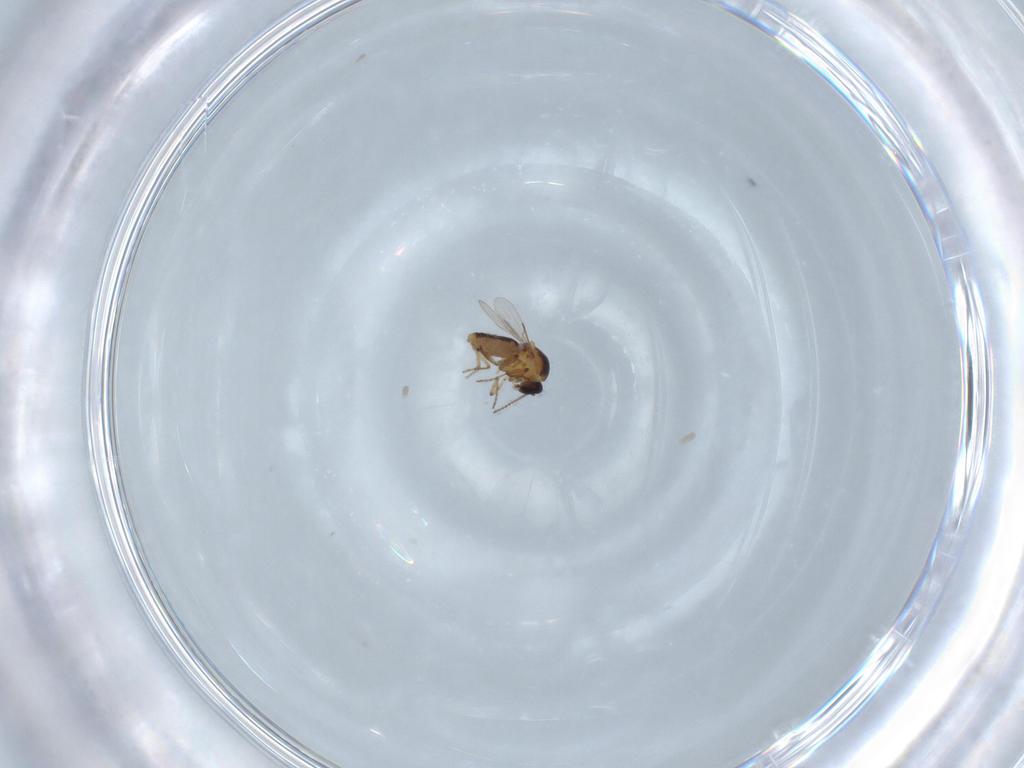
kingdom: Animalia
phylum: Arthropoda
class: Insecta
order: Diptera
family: Ceratopogonidae
